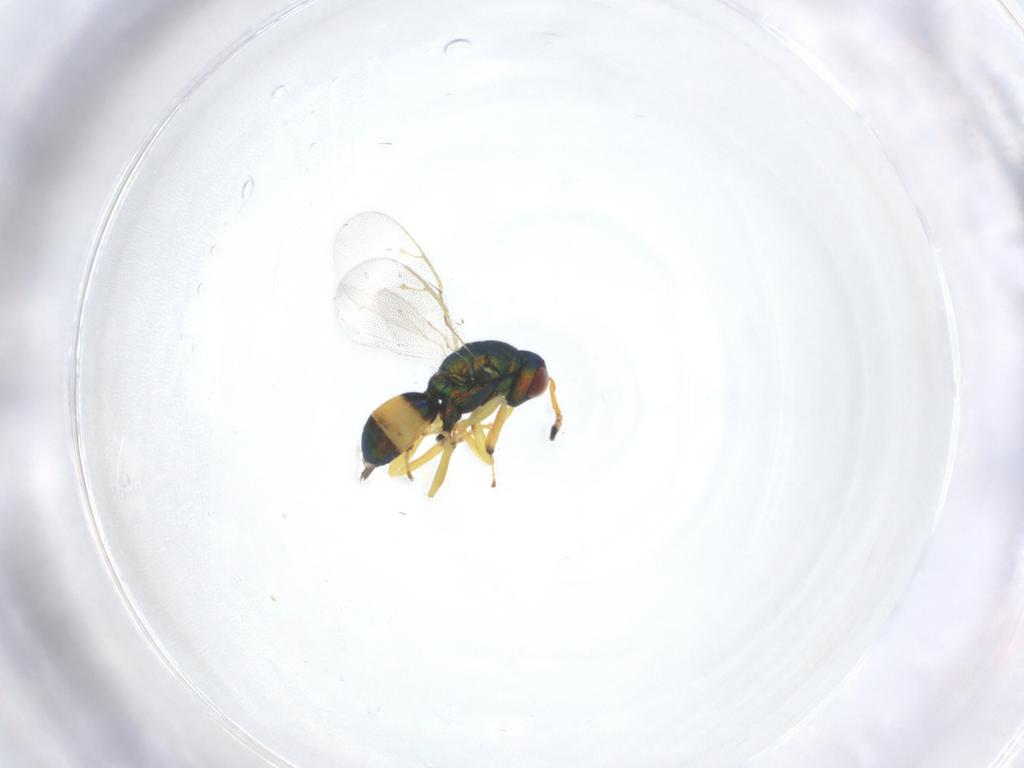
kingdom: Animalia
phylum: Arthropoda
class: Insecta
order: Hymenoptera
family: Pteromalidae
